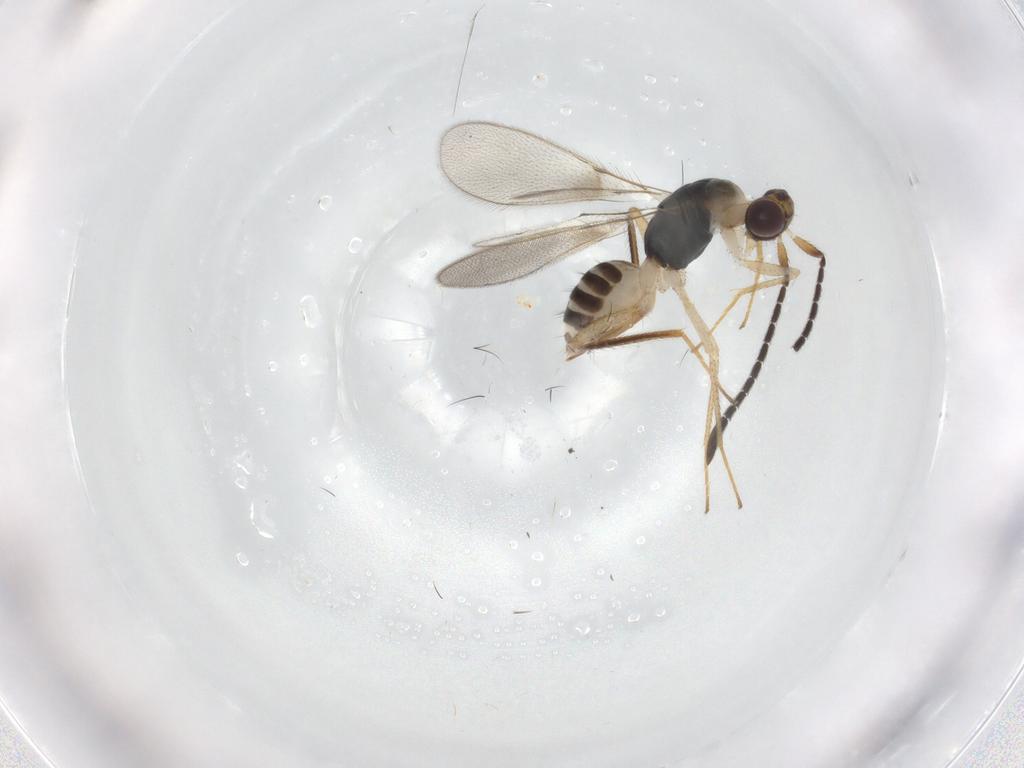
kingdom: Animalia
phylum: Arthropoda
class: Insecta
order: Hymenoptera
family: Mymaridae
